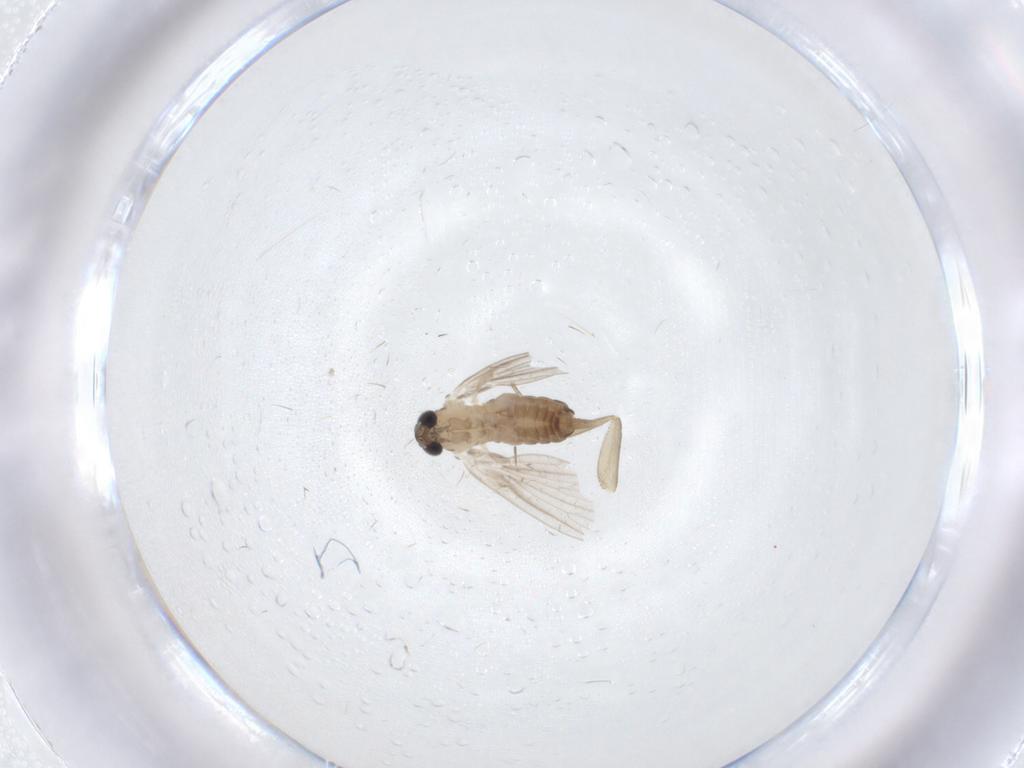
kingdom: Animalia
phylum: Arthropoda
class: Insecta
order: Diptera
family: Psychodidae
